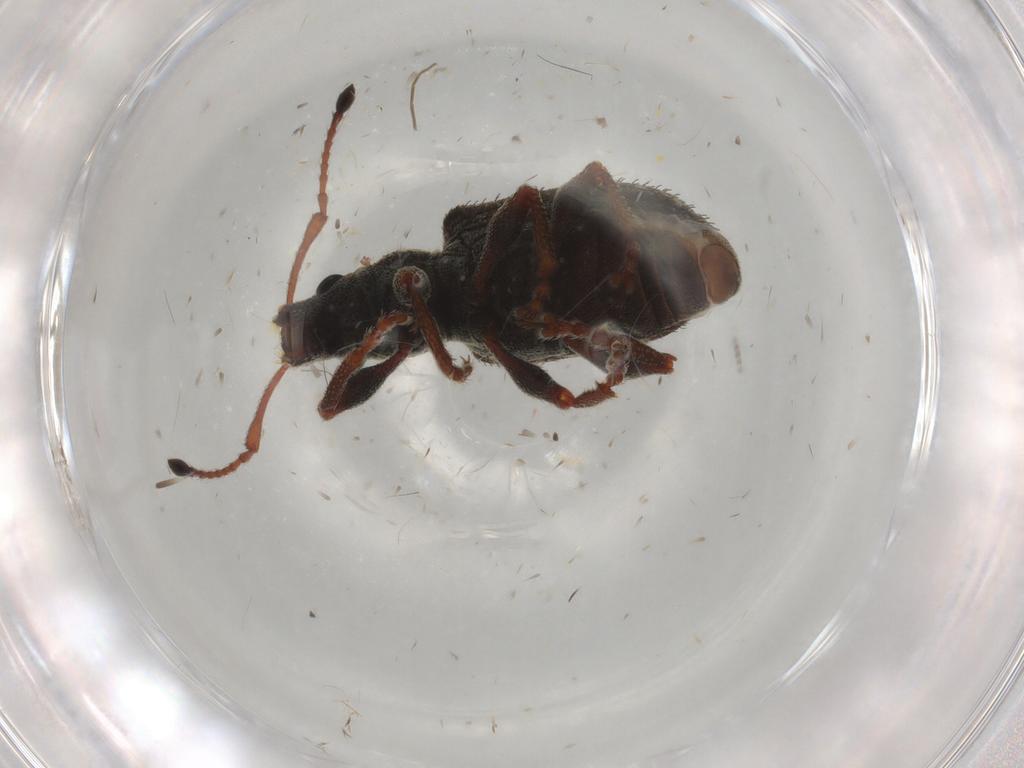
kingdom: Animalia
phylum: Arthropoda
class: Insecta
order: Coleoptera
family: Curculionidae
